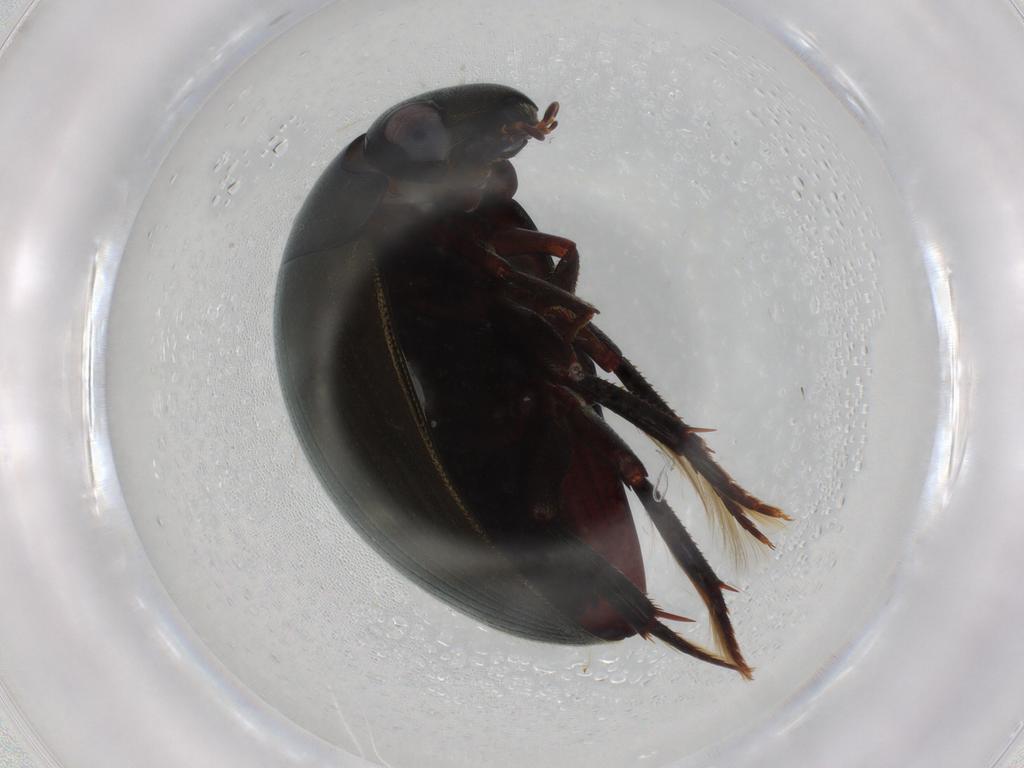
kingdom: Animalia
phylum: Arthropoda
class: Insecta
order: Coleoptera
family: Hydrophilidae
